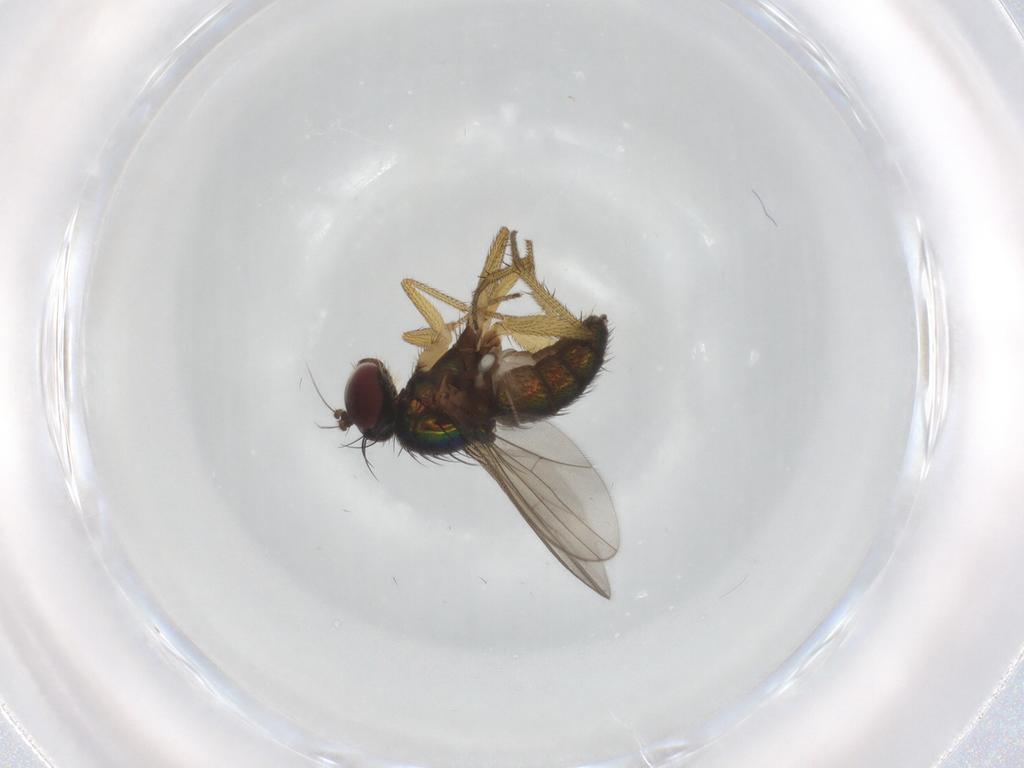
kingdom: Animalia
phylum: Arthropoda
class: Insecta
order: Diptera
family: Dolichopodidae
